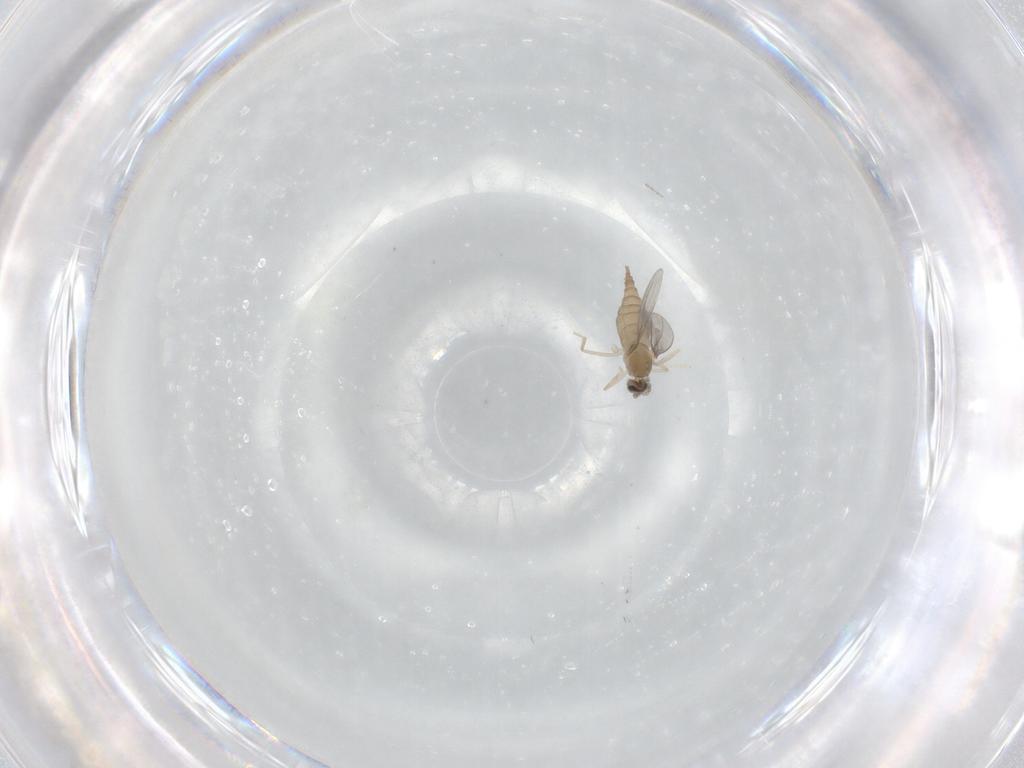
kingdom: Animalia
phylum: Arthropoda
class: Insecta
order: Diptera
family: Cecidomyiidae
